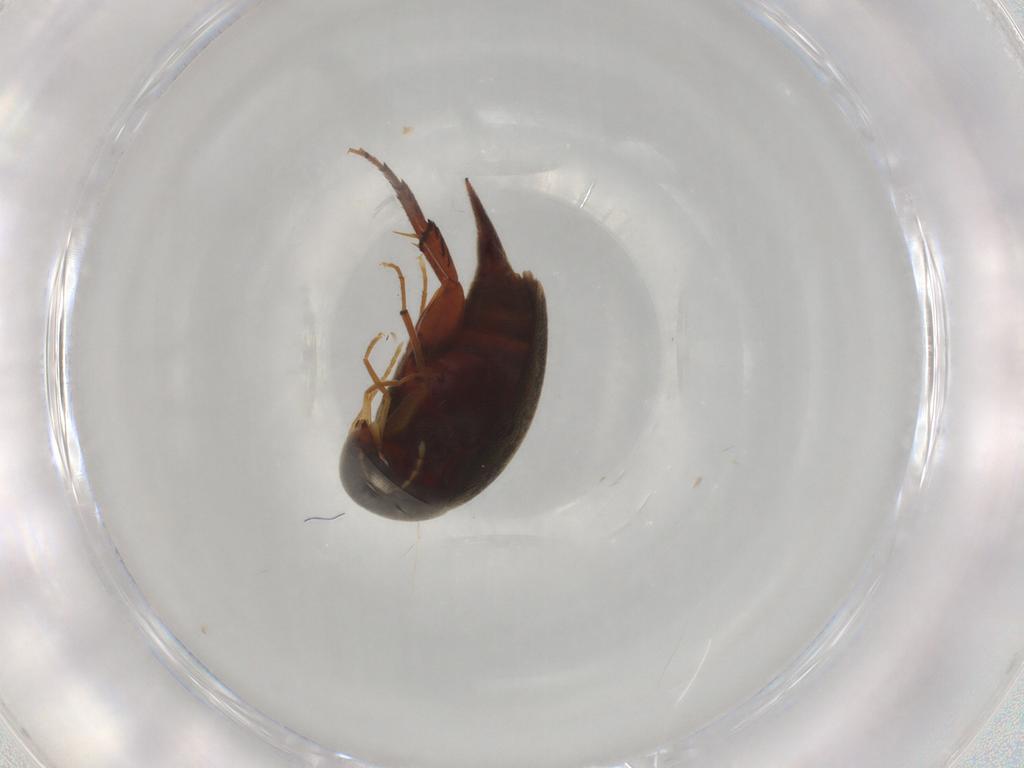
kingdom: Animalia
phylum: Arthropoda
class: Insecta
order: Coleoptera
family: Mordellidae
